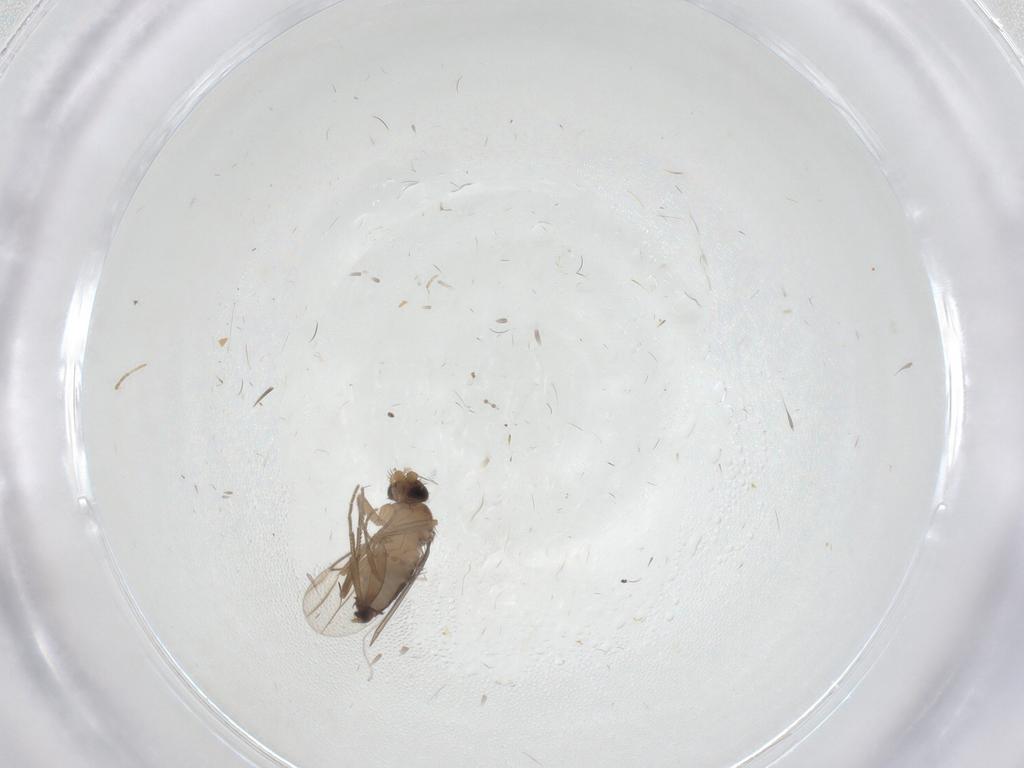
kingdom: Animalia
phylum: Arthropoda
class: Insecta
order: Diptera
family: Phoridae
